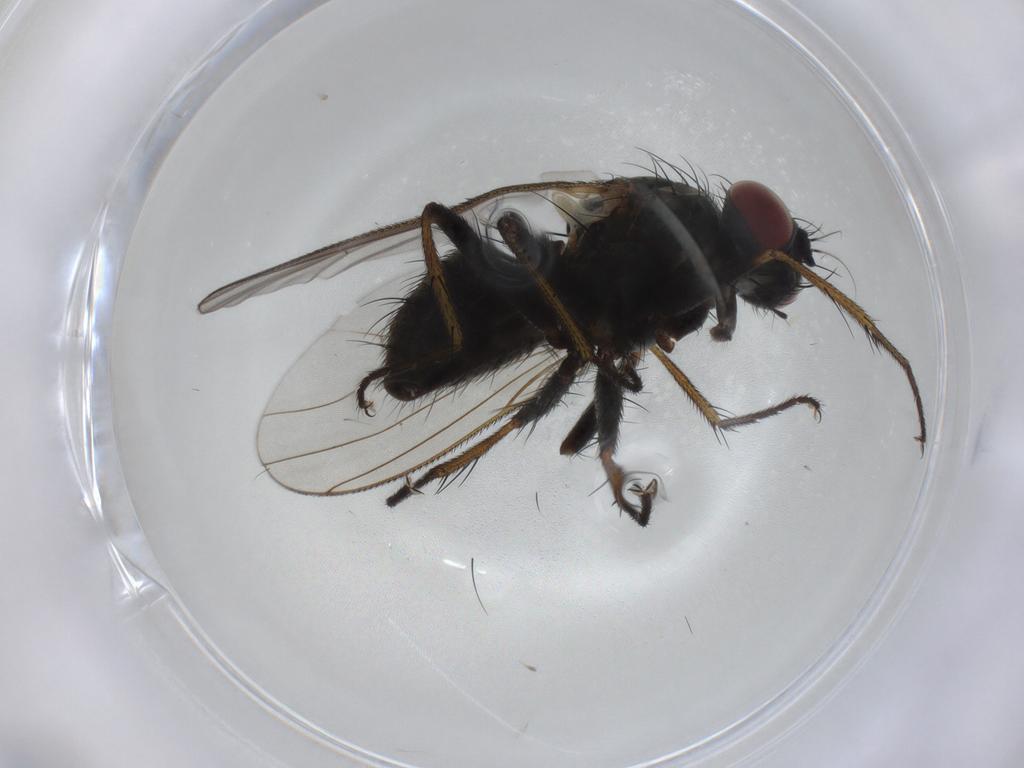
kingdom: Animalia
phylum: Arthropoda
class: Insecta
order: Diptera
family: Muscidae
